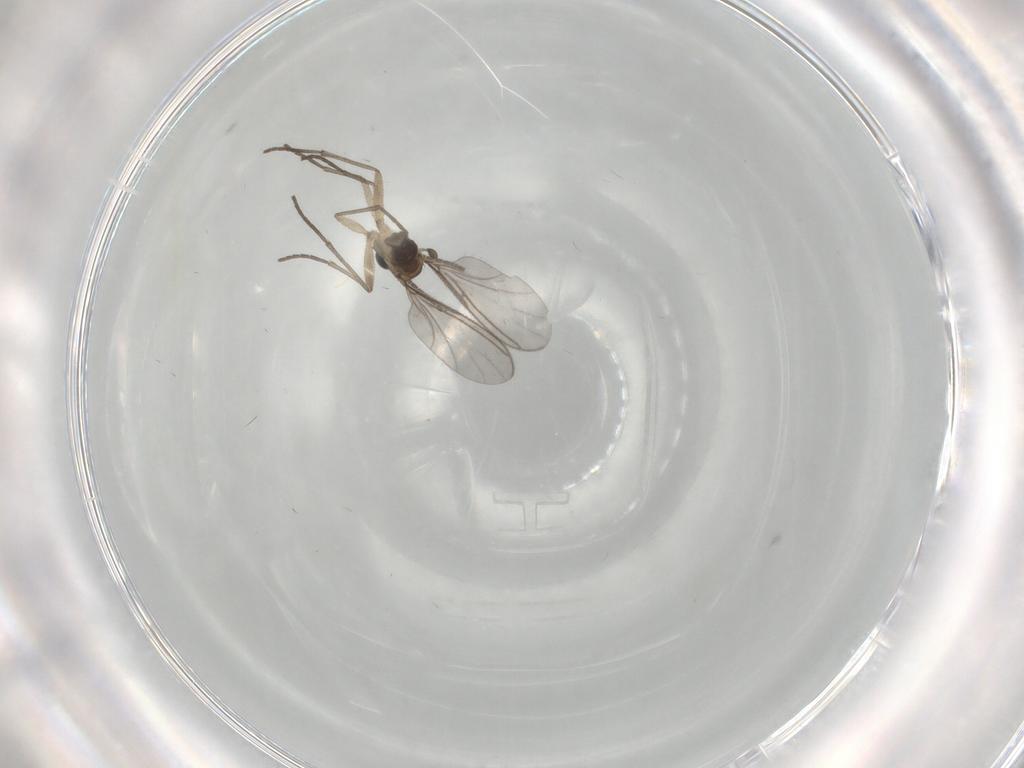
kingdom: Animalia
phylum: Arthropoda
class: Insecta
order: Diptera
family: Sciaridae
